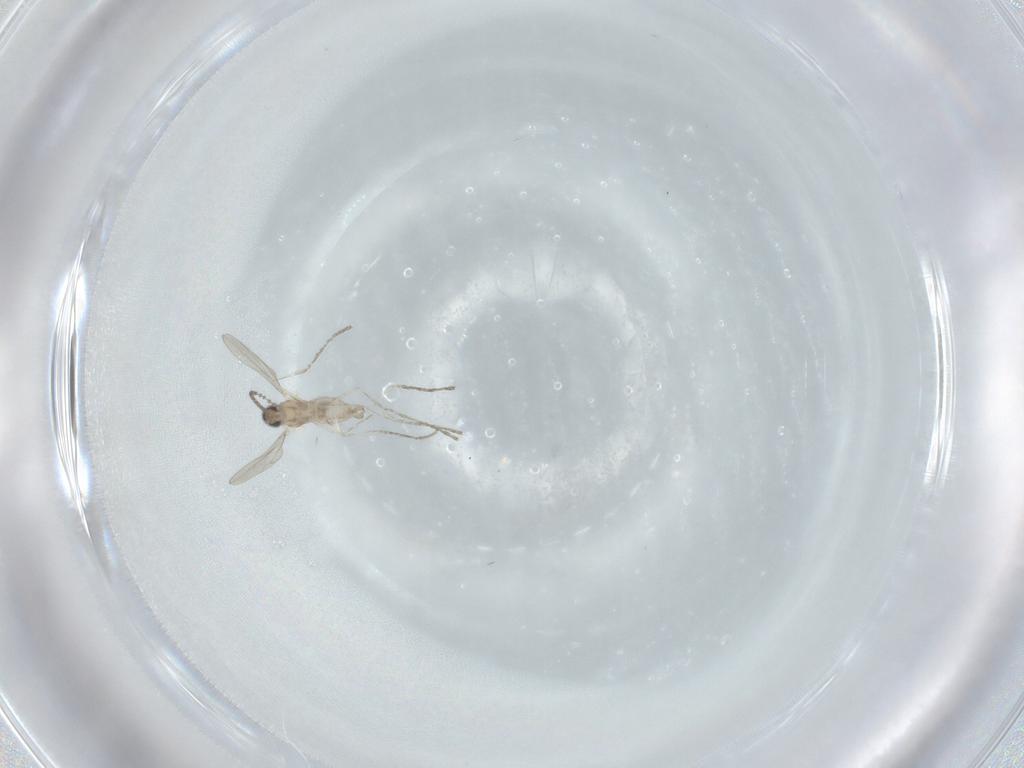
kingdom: Animalia
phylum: Arthropoda
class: Insecta
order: Diptera
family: Cecidomyiidae
